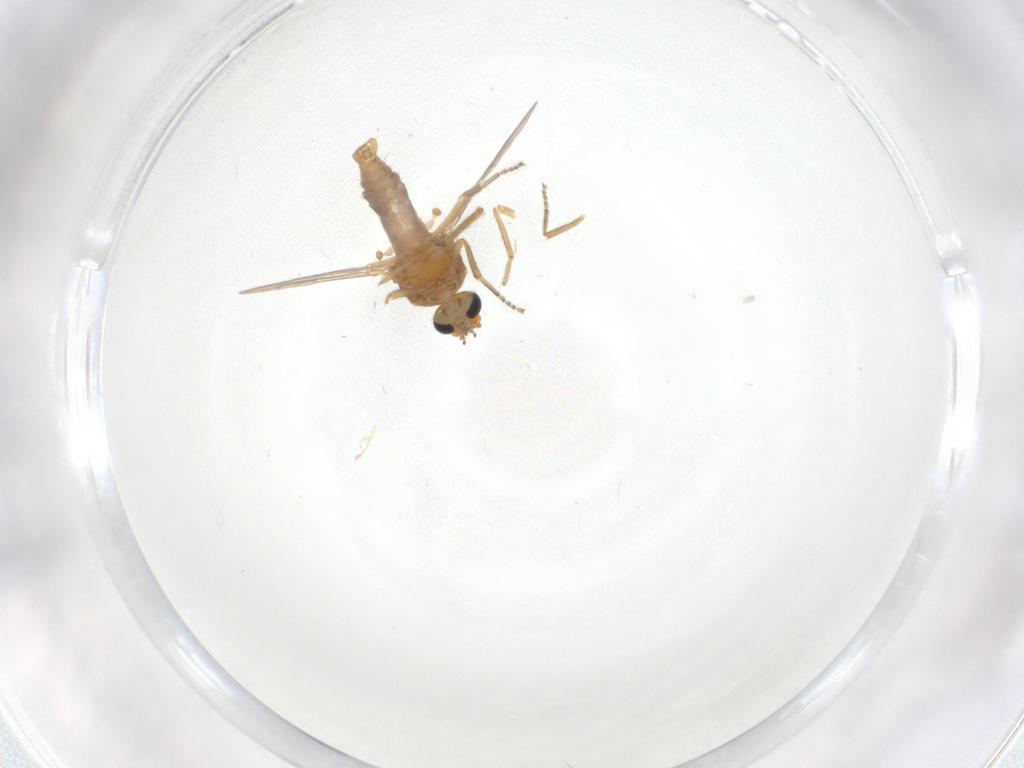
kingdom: Animalia
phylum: Arthropoda
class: Insecta
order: Diptera
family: Ceratopogonidae
